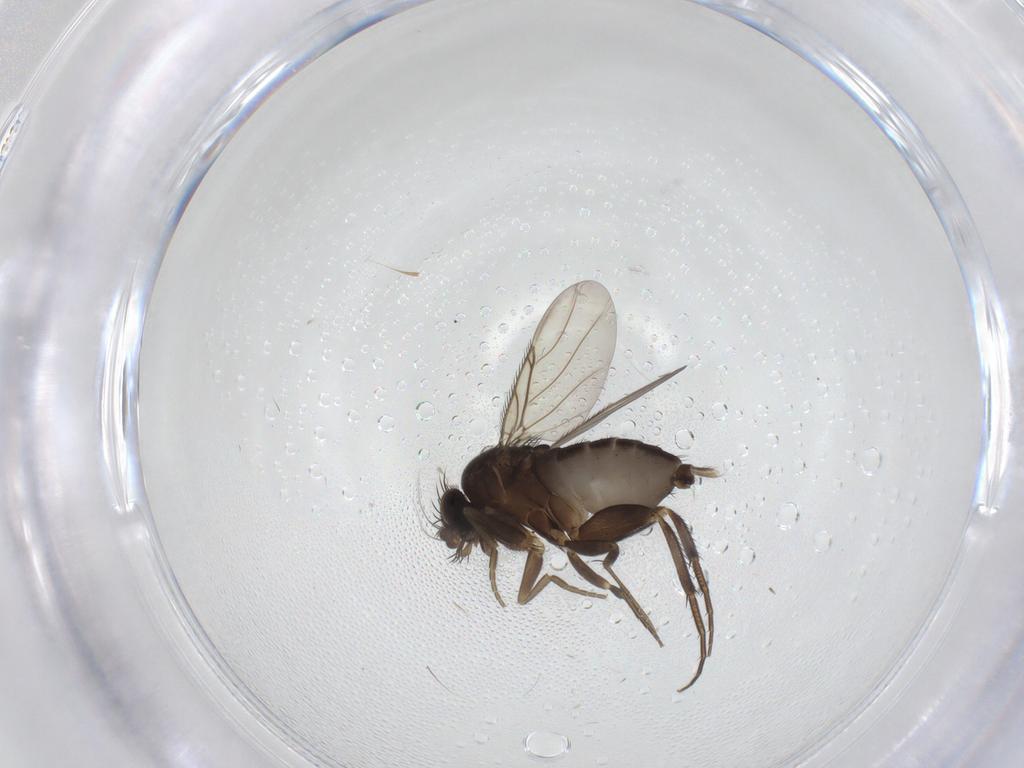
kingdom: Animalia
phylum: Arthropoda
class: Insecta
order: Diptera
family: Phoridae
